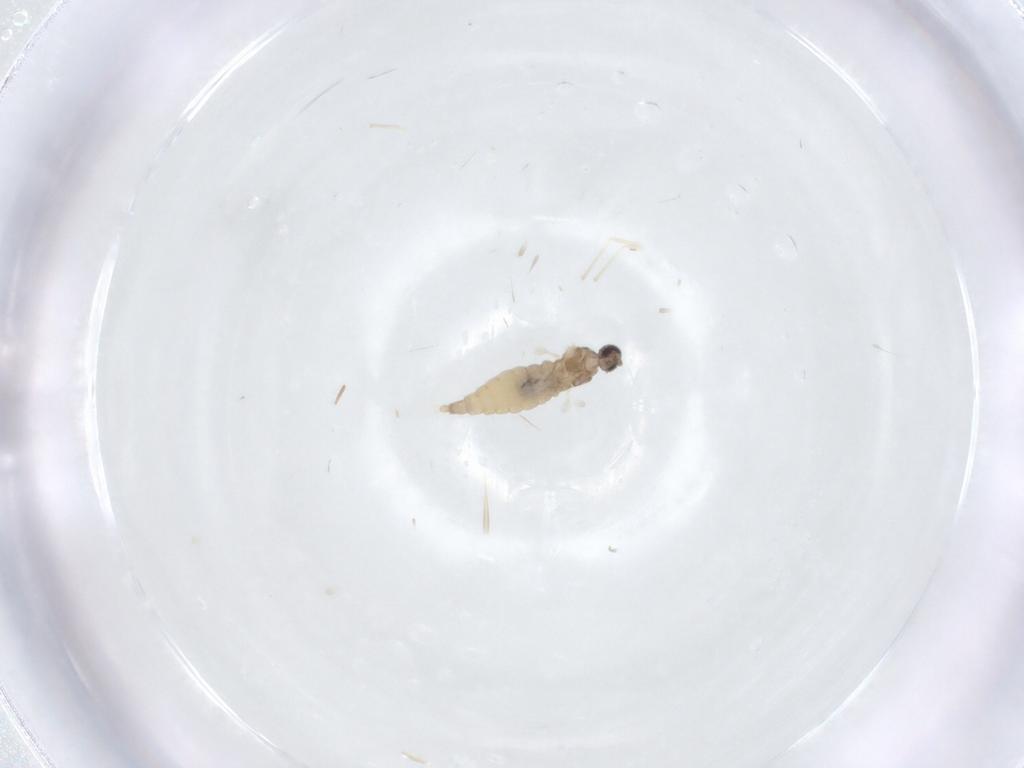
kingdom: Animalia
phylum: Arthropoda
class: Insecta
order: Diptera
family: Cecidomyiidae
